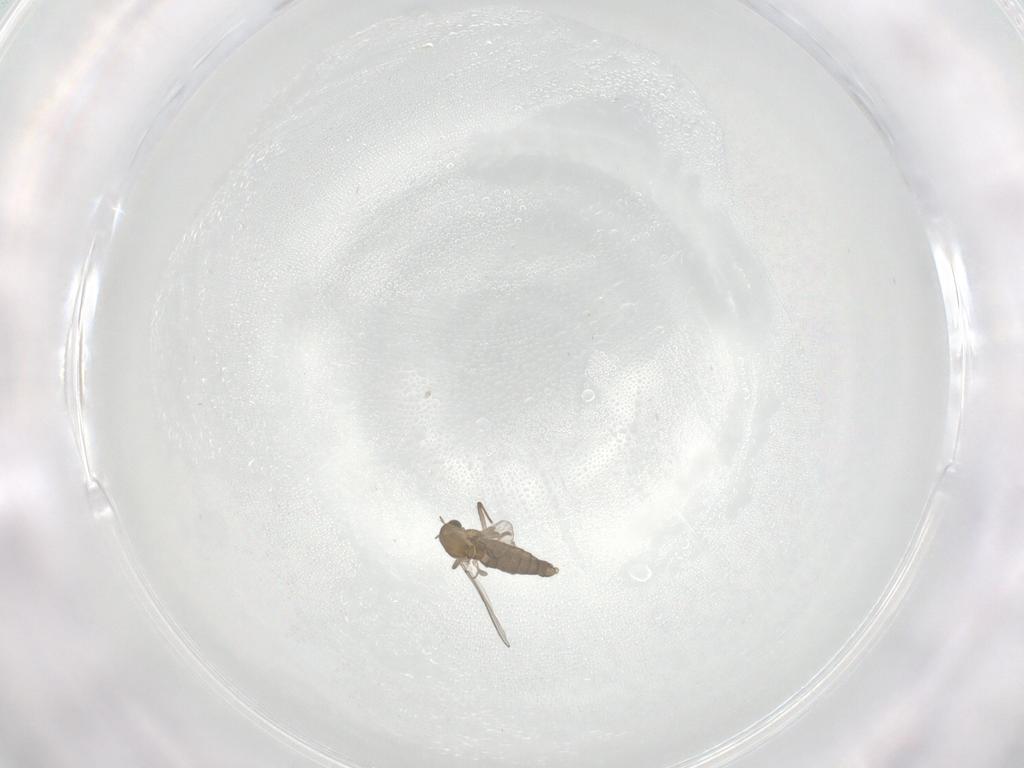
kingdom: Animalia
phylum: Arthropoda
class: Insecta
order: Diptera
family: Chironomidae
